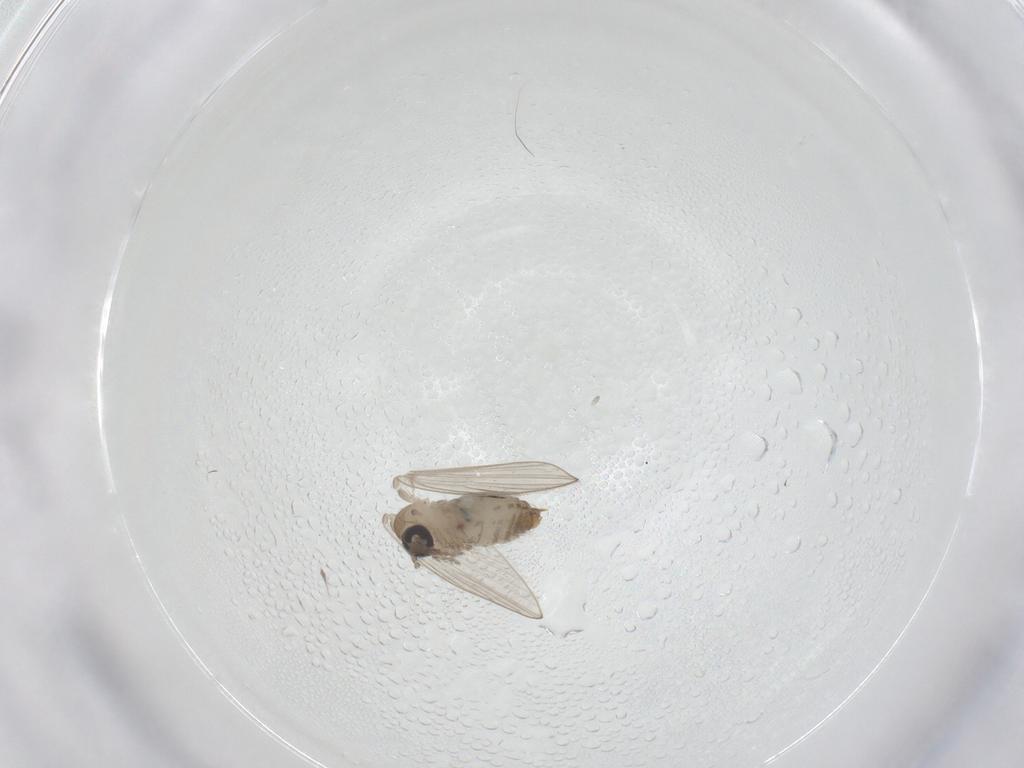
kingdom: Animalia
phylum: Arthropoda
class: Insecta
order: Diptera
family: Psychodidae
